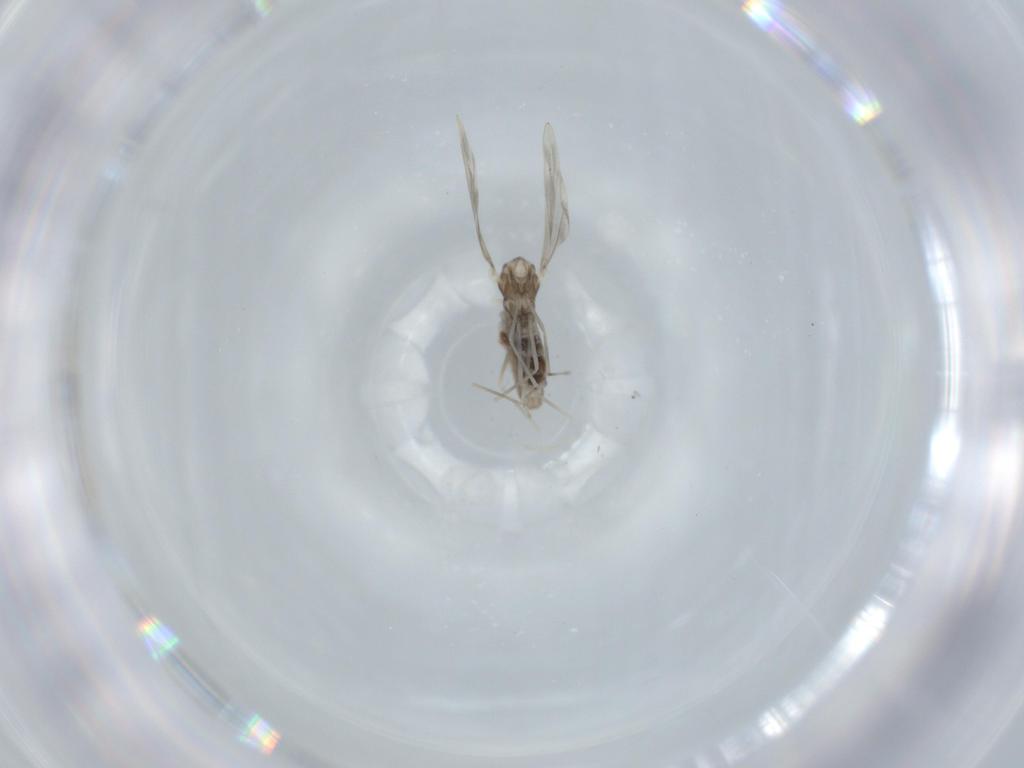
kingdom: Animalia
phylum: Arthropoda
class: Insecta
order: Diptera
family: Cecidomyiidae
